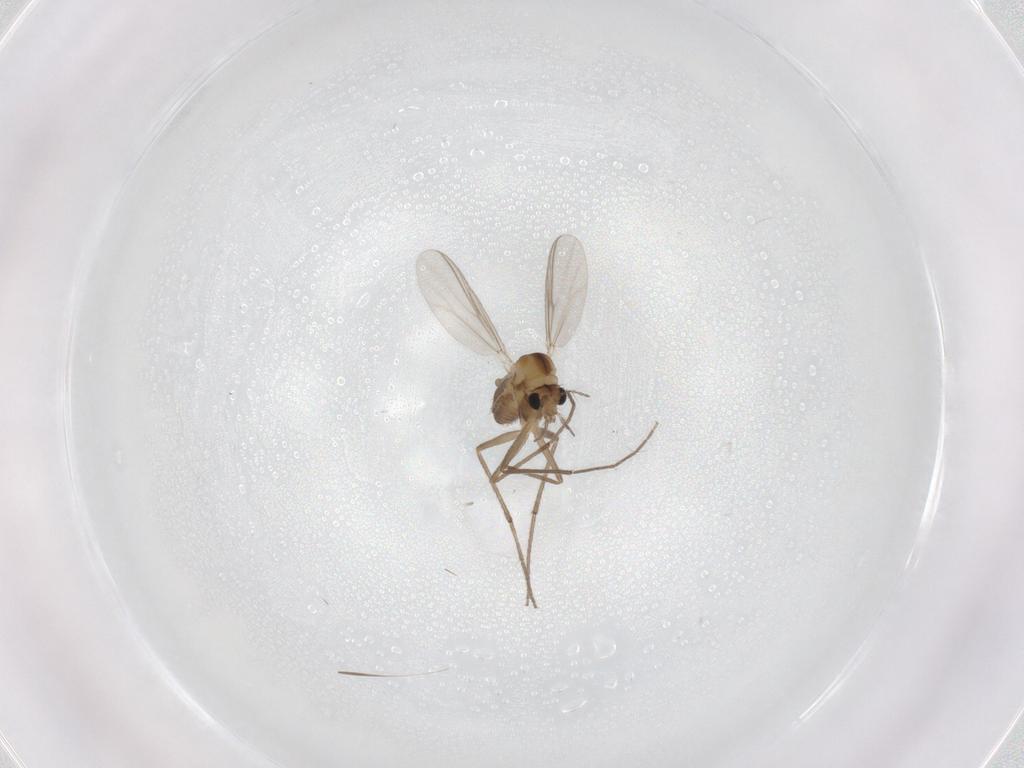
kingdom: Animalia
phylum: Arthropoda
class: Insecta
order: Diptera
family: Chironomidae
